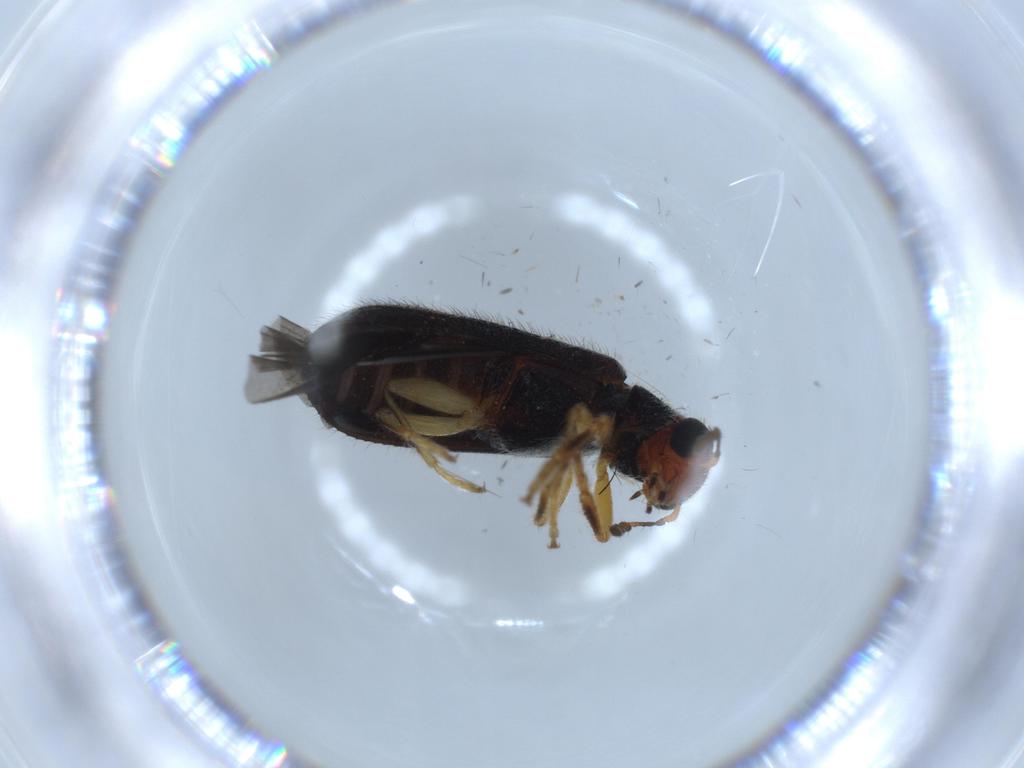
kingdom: Animalia
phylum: Arthropoda
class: Insecta
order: Coleoptera
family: Cleridae
